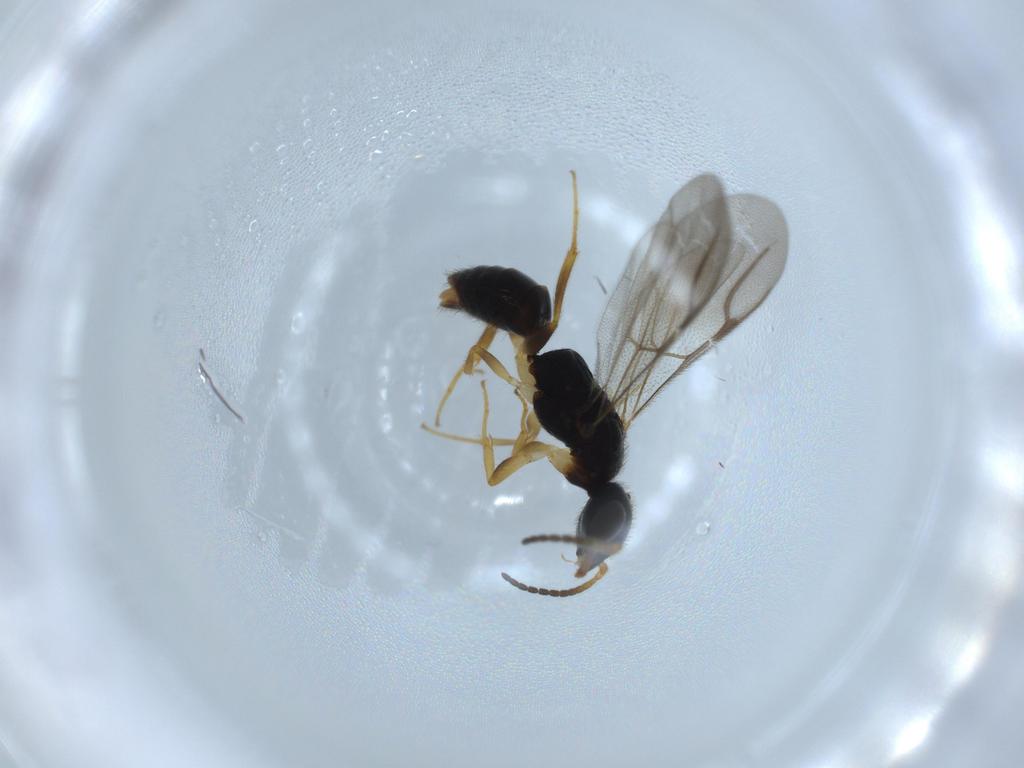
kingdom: Animalia
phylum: Arthropoda
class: Insecta
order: Hymenoptera
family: Bethylidae
